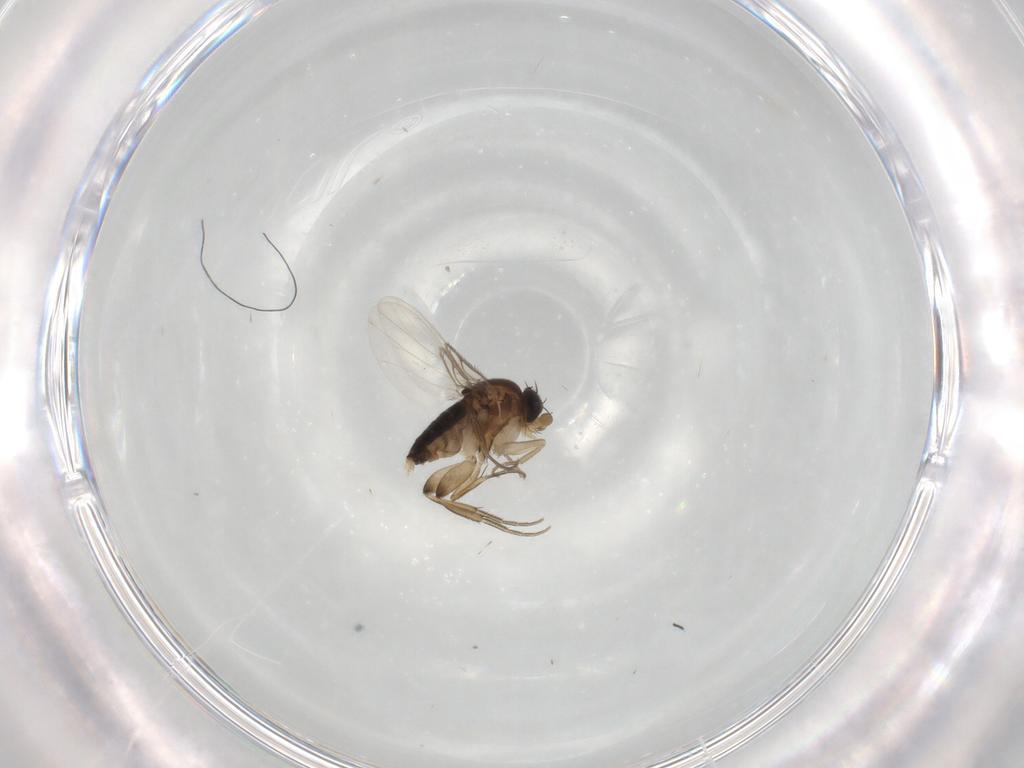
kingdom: Animalia
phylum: Arthropoda
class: Insecta
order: Diptera
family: Phoridae
